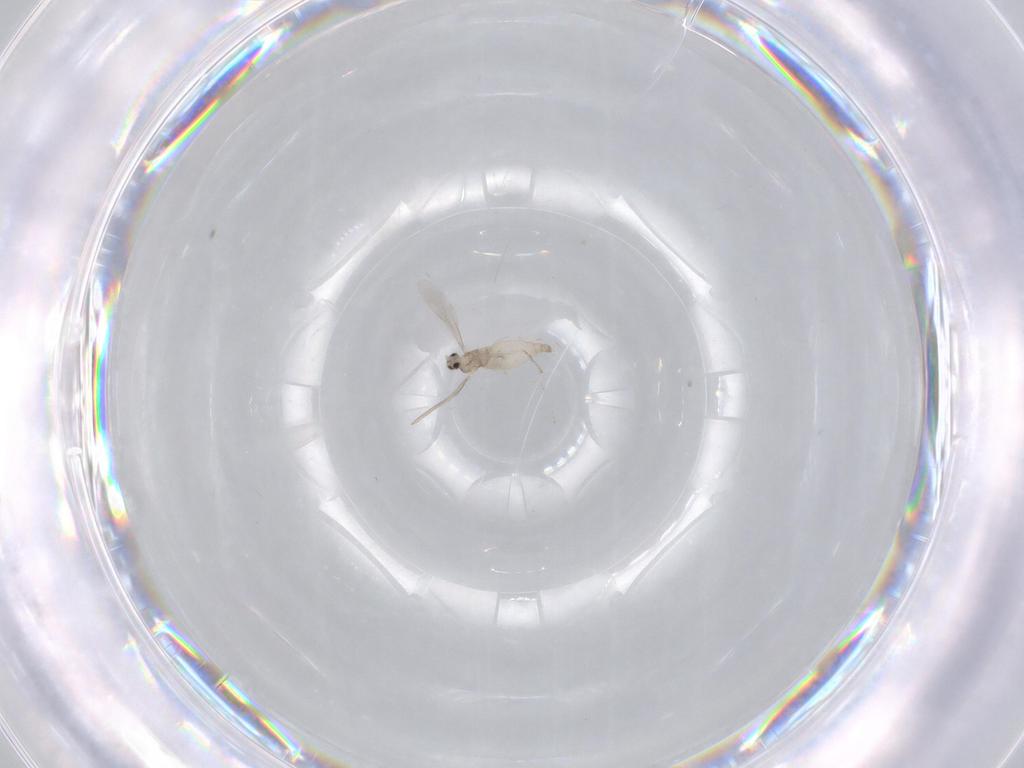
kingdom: Animalia
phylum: Arthropoda
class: Insecta
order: Diptera
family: Cecidomyiidae
